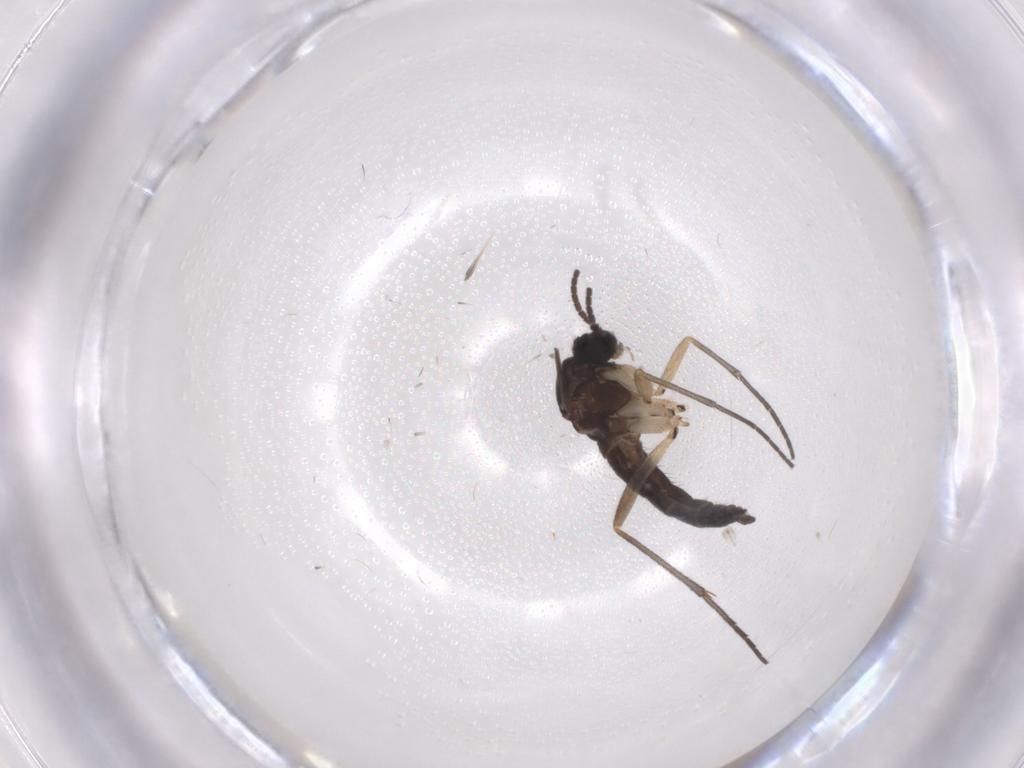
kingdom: Animalia
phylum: Arthropoda
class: Insecta
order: Diptera
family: Sciaridae
